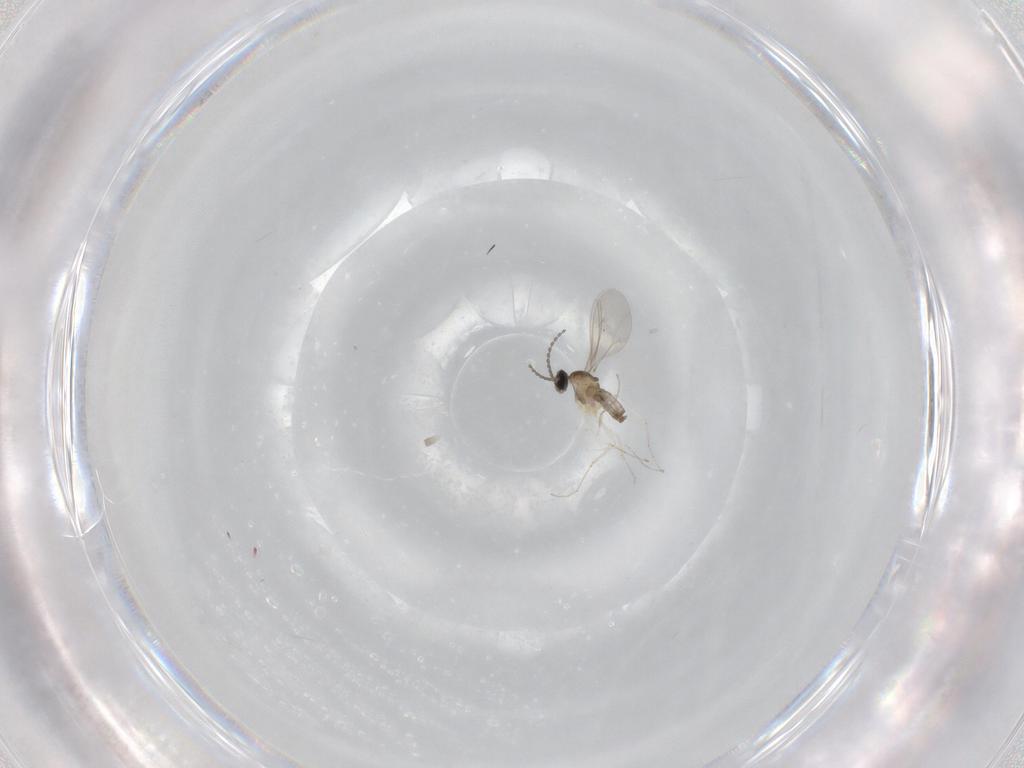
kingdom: Animalia
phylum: Arthropoda
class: Insecta
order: Diptera
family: Cecidomyiidae
